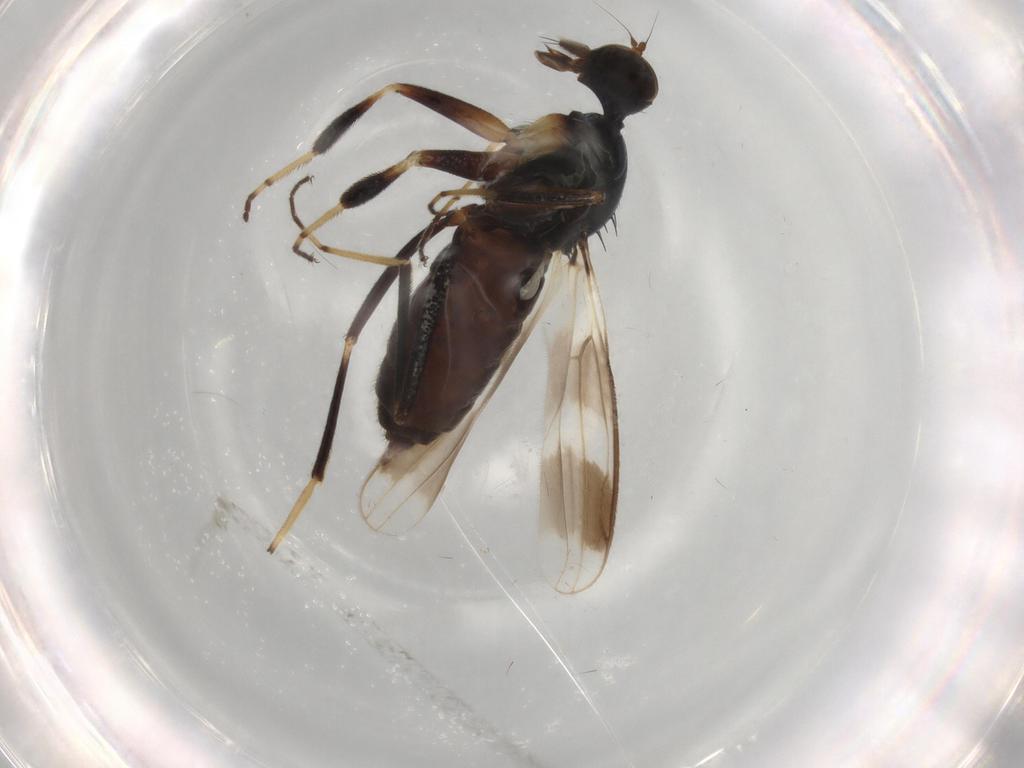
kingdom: Animalia
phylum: Arthropoda
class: Insecta
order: Diptera
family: Hybotidae
